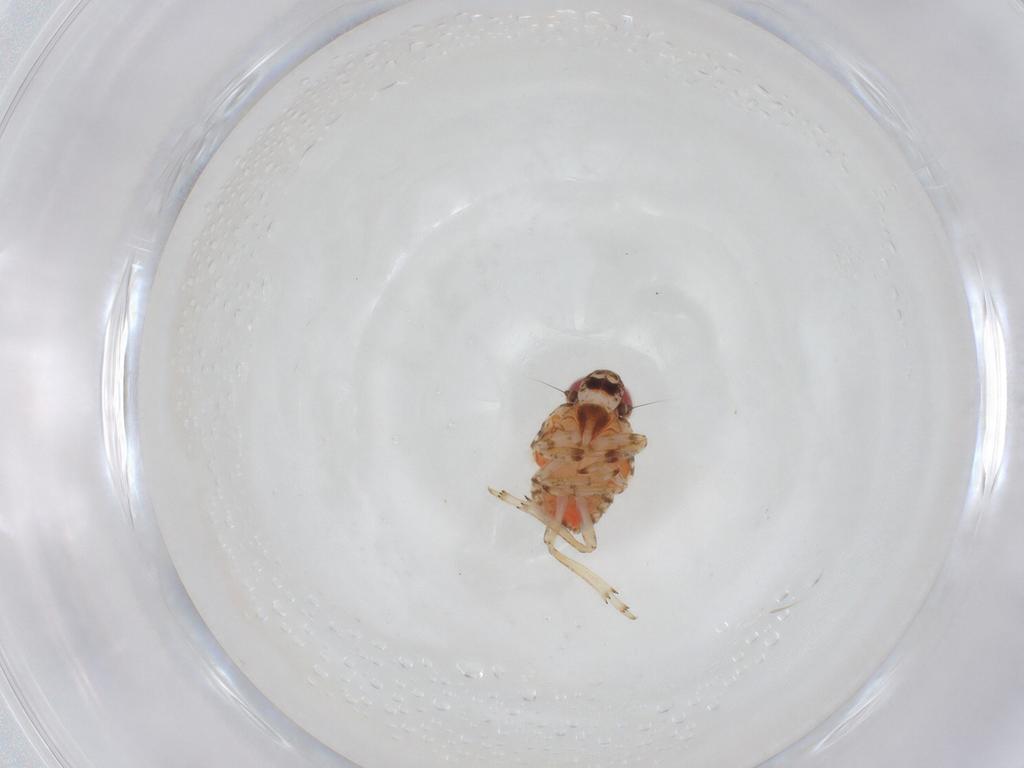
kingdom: Animalia
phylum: Arthropoda
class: Insecta
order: Hemiptera
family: Issidae
